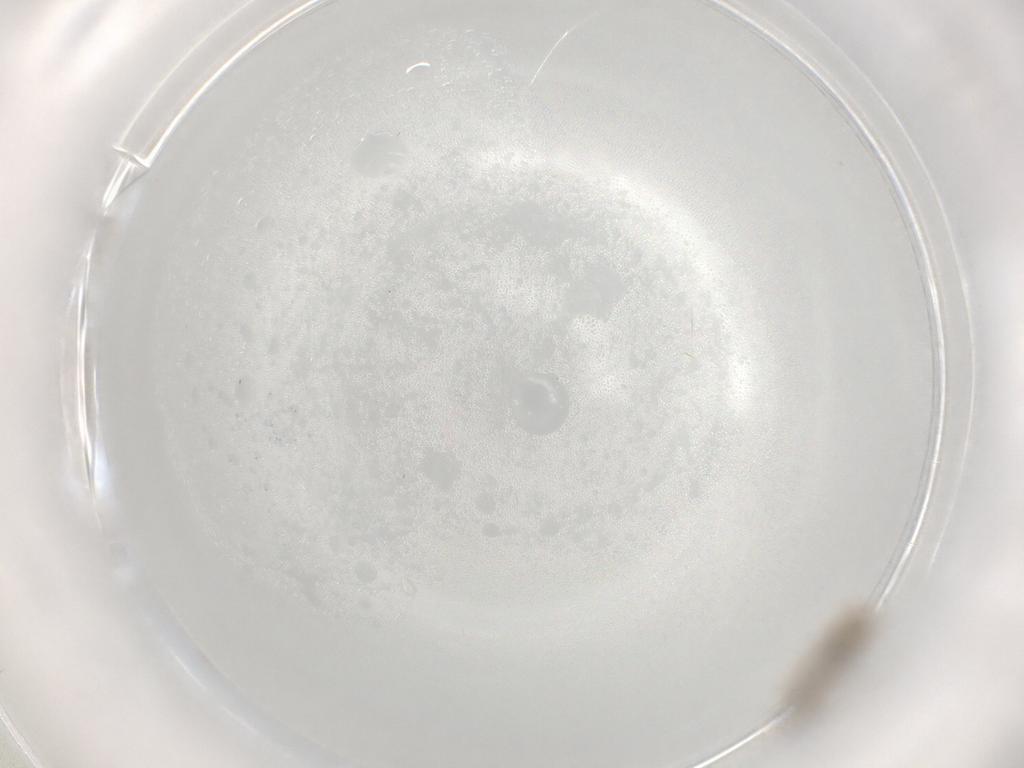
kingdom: Animalia
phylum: Arthropoda
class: Insecta
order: Diptera
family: Cecidomyiidae
